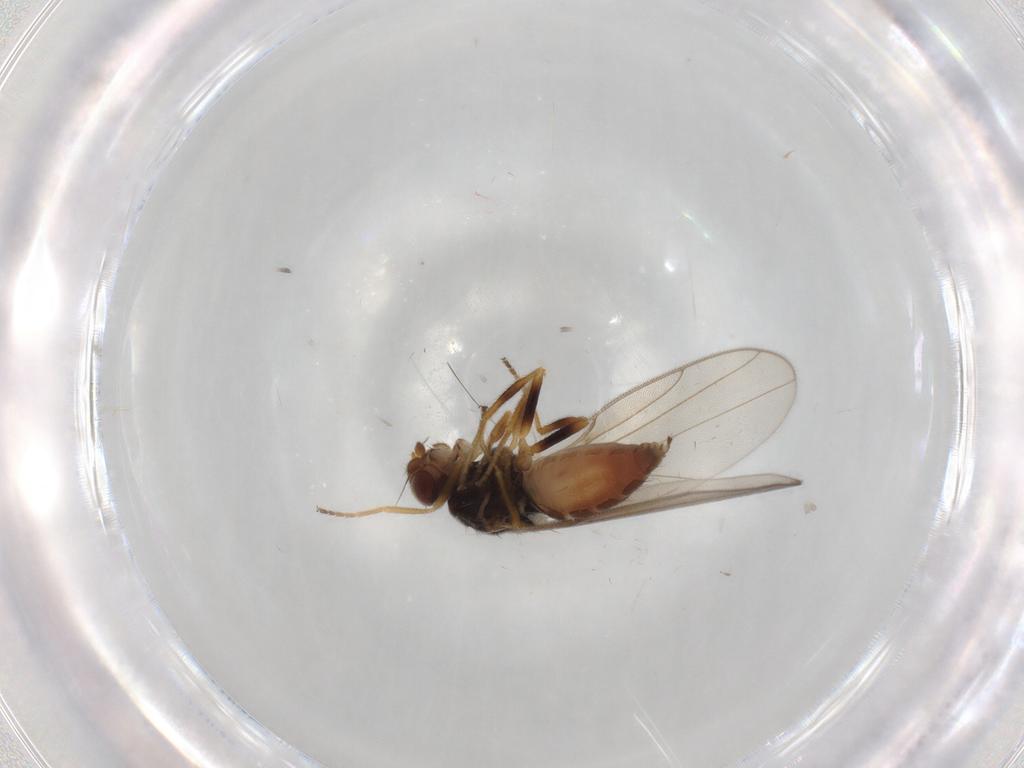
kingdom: Animalia
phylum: Arthropoda
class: Insecta
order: Diptera
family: Chloropidae
